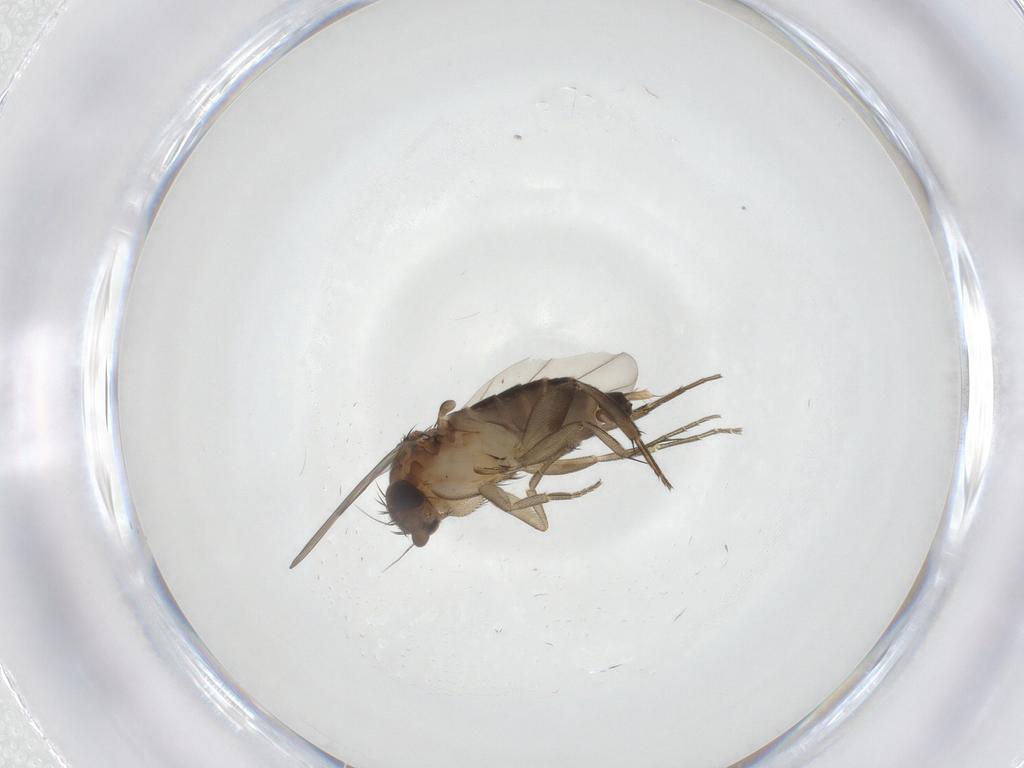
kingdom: Animalia
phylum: Arthropoda
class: Insecta
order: Diptera
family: Phoridae
